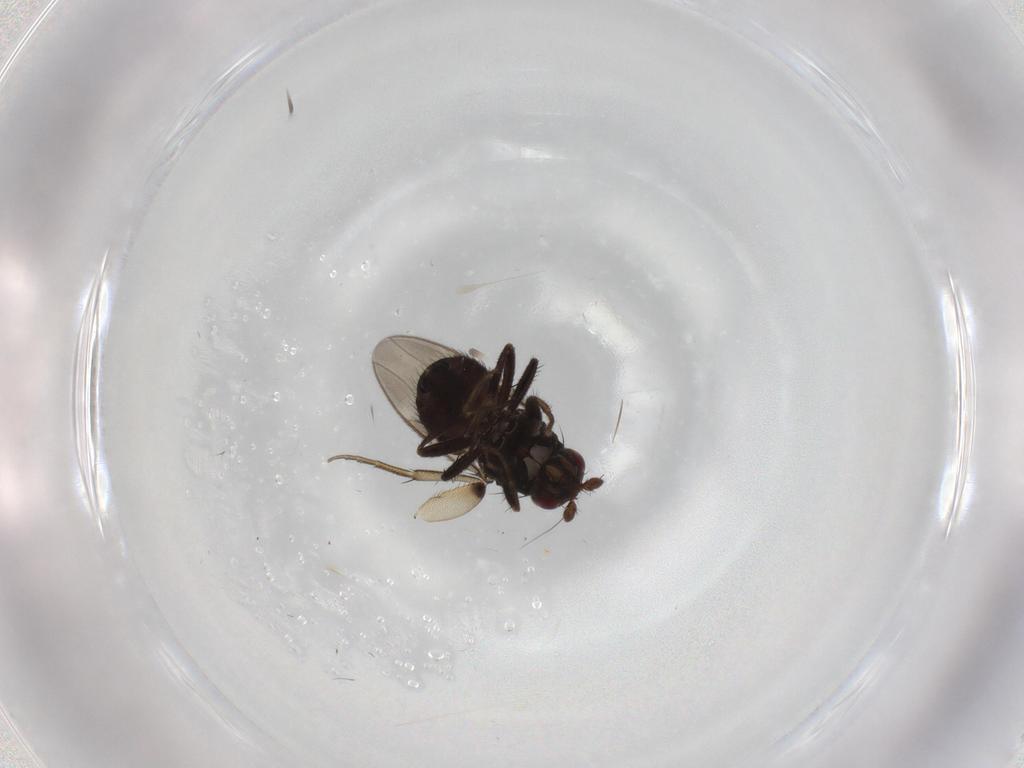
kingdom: Animalia
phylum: Arthropoda
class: Insecta
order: Diptera
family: Sphaeroceridae
